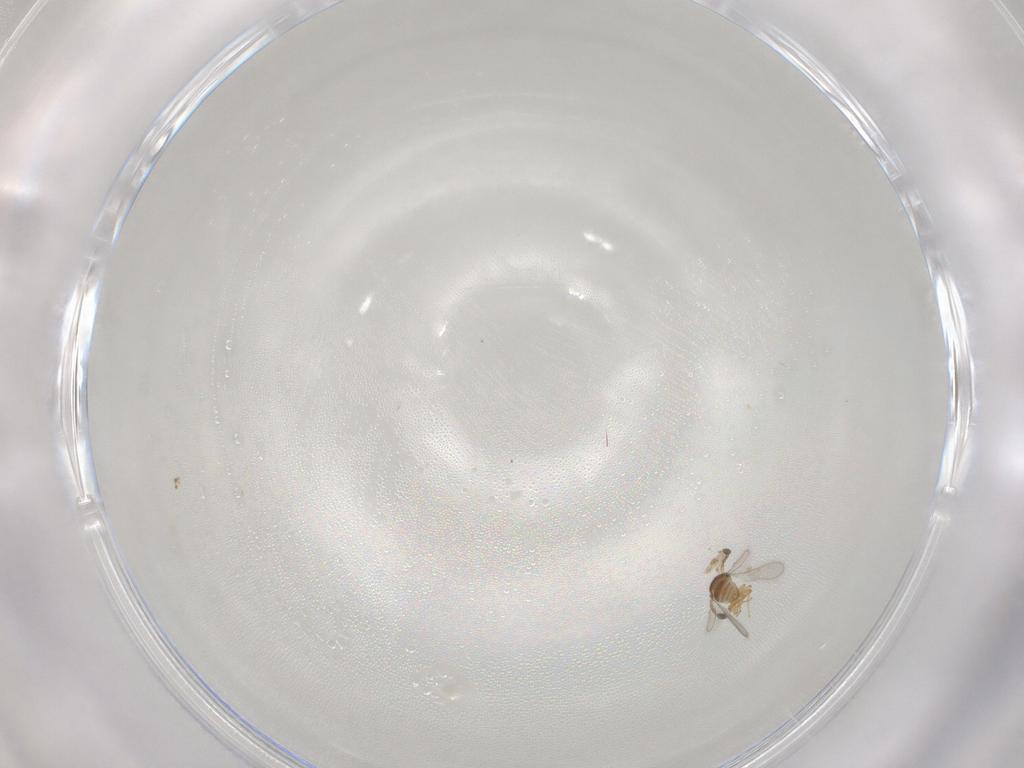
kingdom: Animalia
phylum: Arthropoda
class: Insecta
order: Hymenoptera
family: Scelionidae
